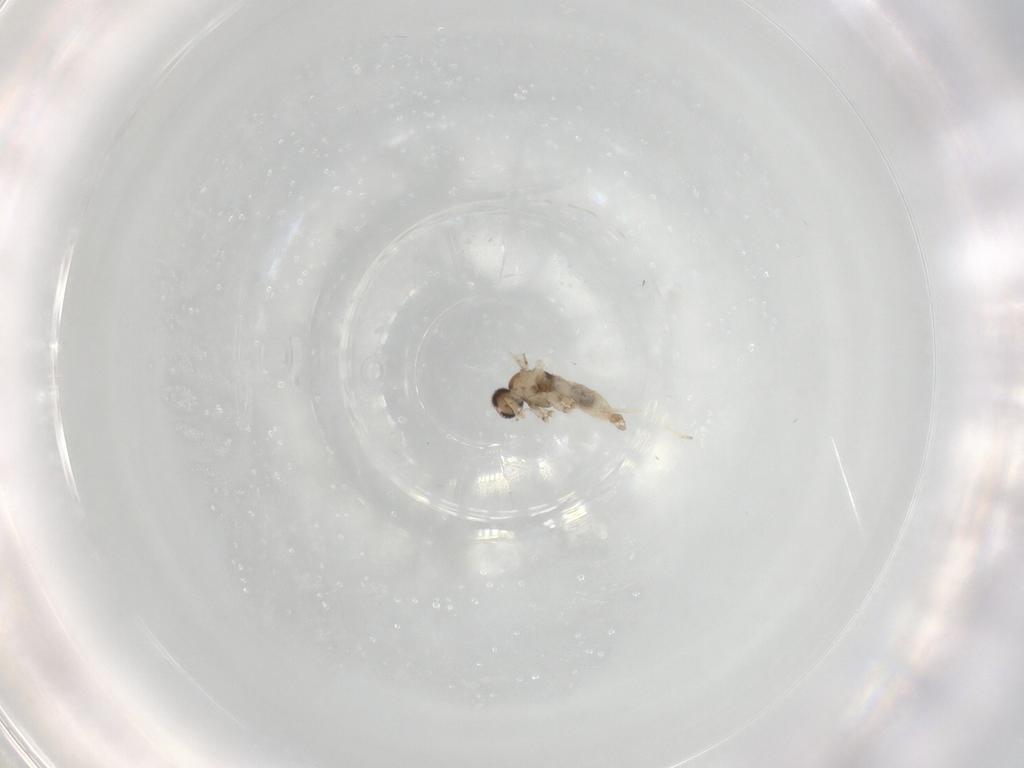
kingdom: Animalia
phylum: Arthropoda
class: Insecta
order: Diptera
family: Cecidomyiidae
